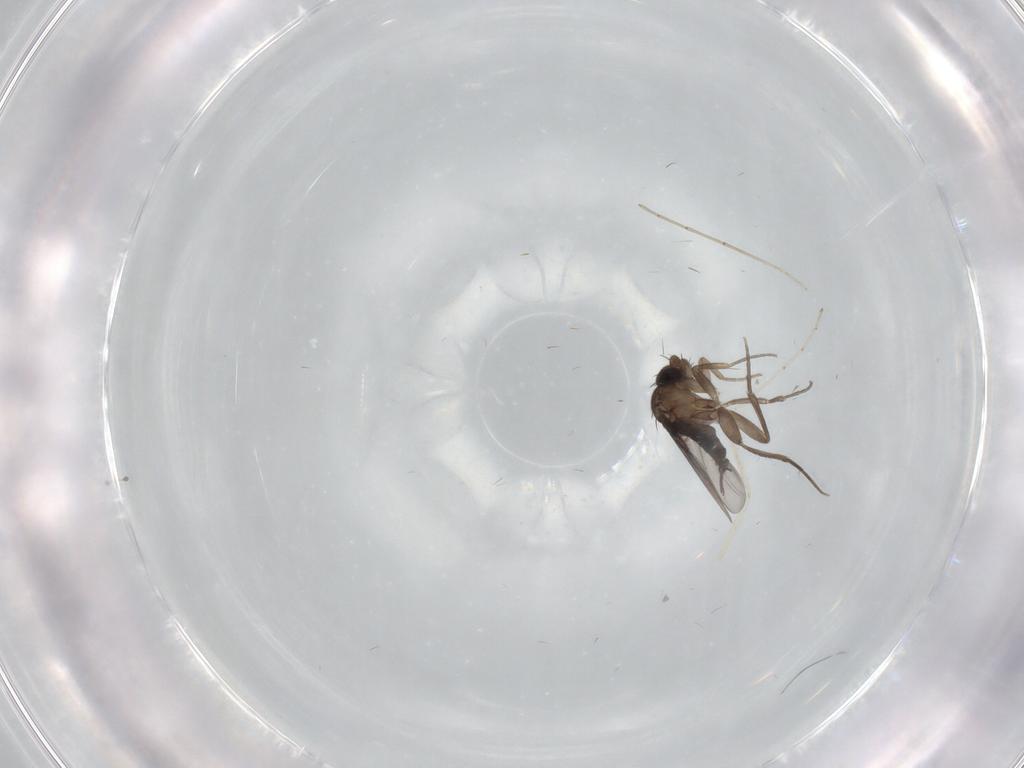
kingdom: Animalia
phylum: Arthropoda
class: Insecta
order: Diptera
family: Phoridae
